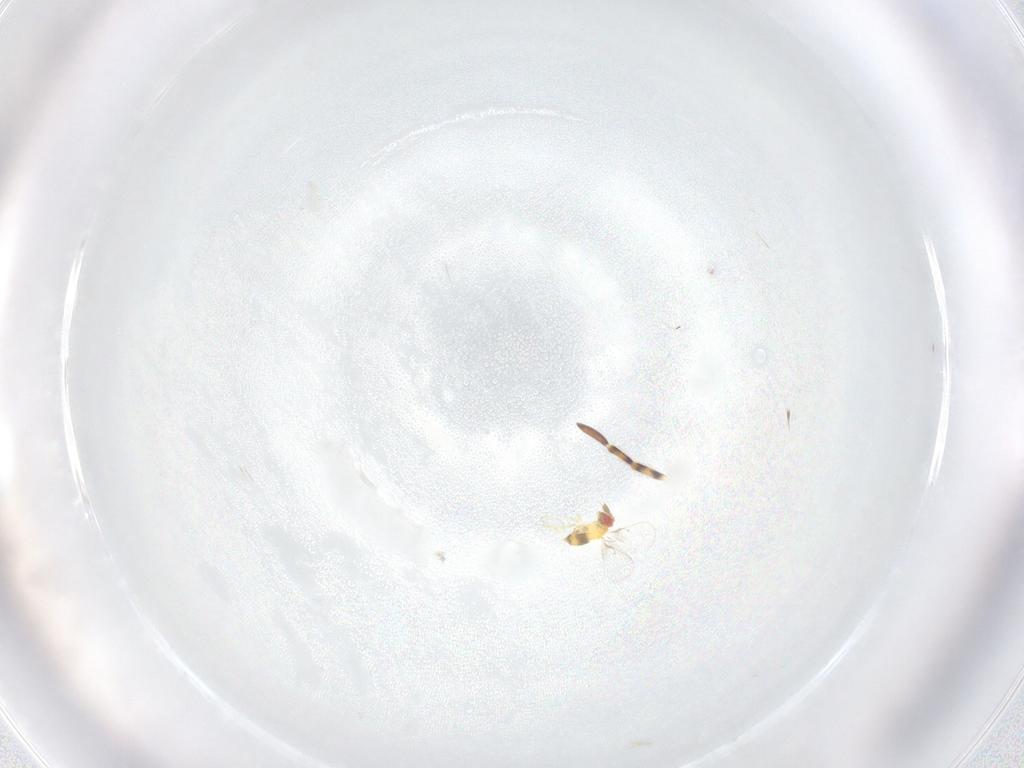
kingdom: Animalia
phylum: Arthropoda
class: Insecta
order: Hymenoptera
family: Trichogrammatidae
